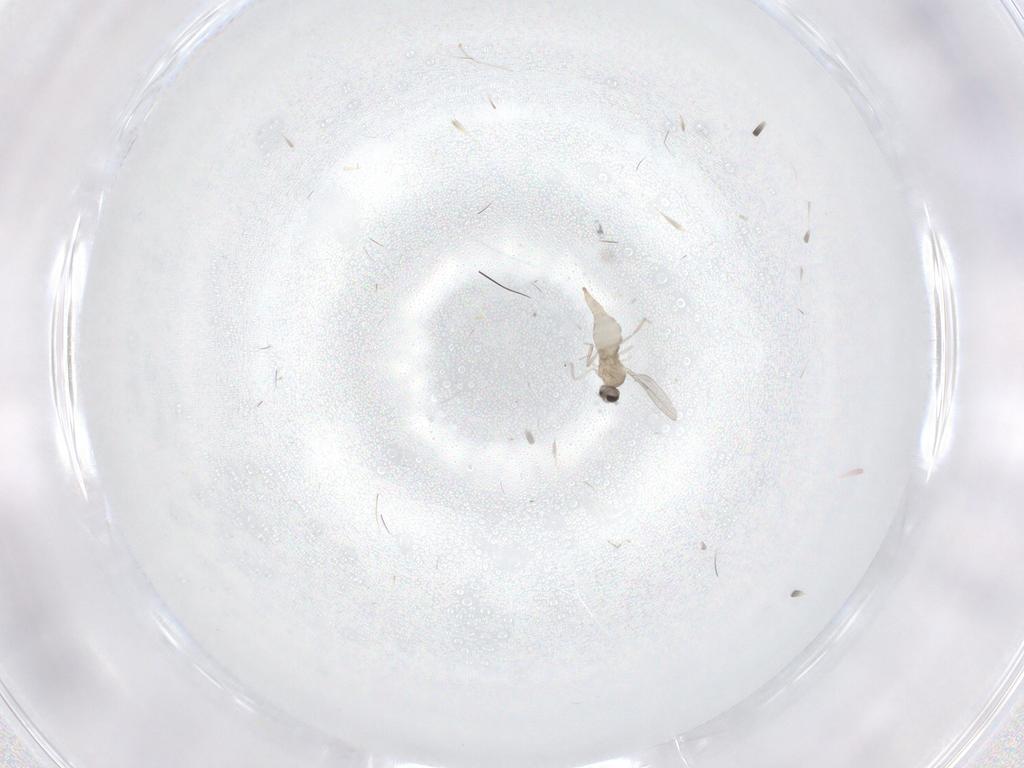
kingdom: Animalia
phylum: Arthropoda
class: Insecta
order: Diptera
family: Cecidomyiidae
